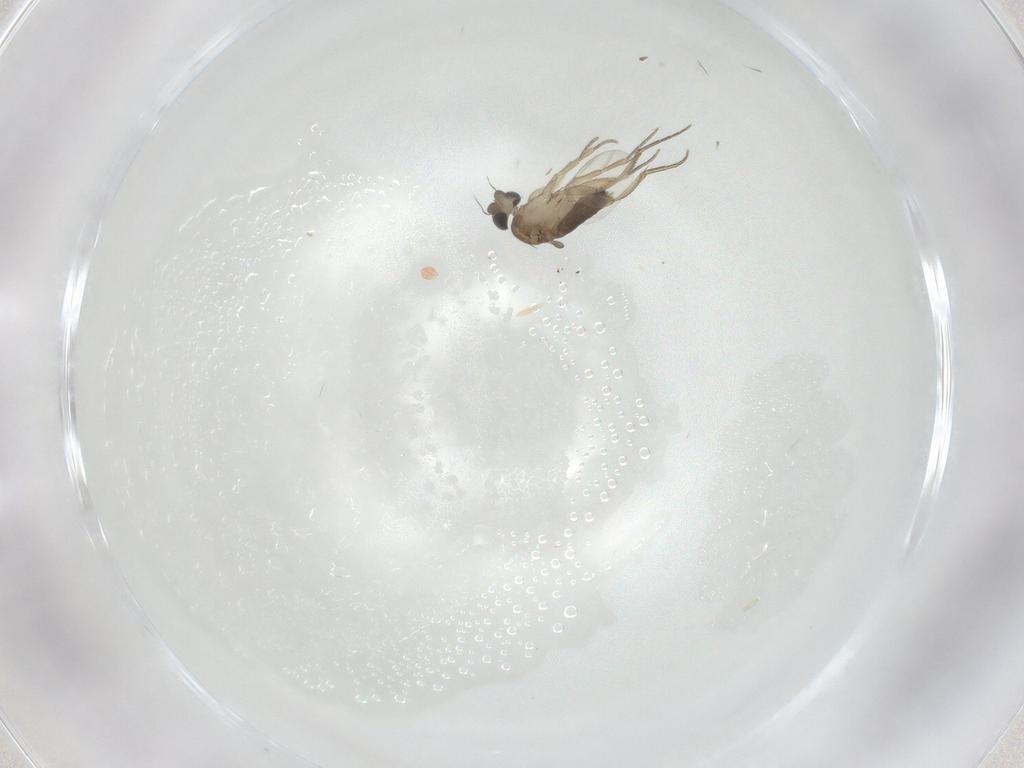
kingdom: Animalia
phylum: Arthropoda
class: Insecta
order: Diptera
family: Phoridae
